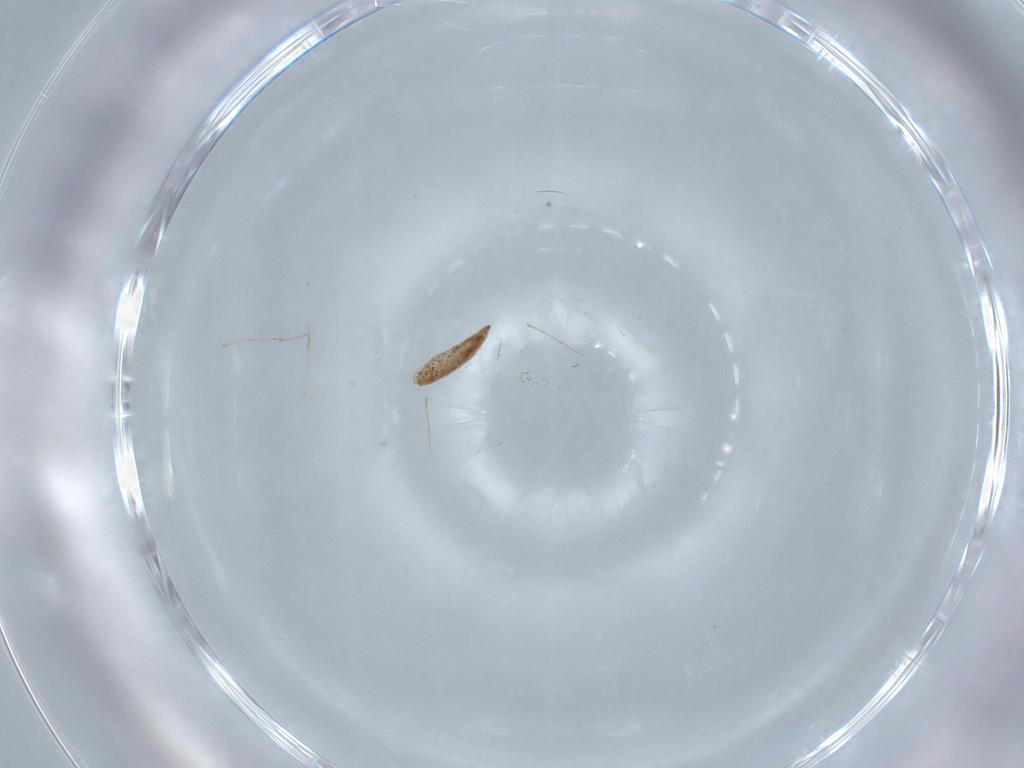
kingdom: Animalia
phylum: Arthropoda
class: Insecta
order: Diptera
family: Cecidomyiidae
